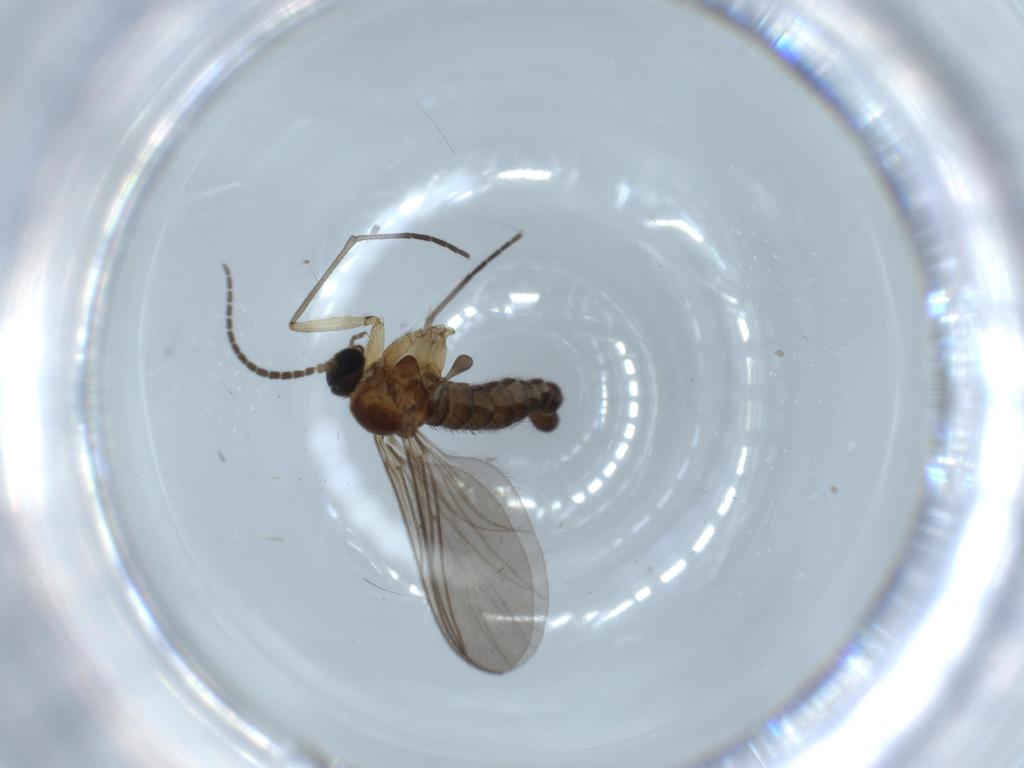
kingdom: Animalia
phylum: Arthropoda
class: Insecta
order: Diptera
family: Sciaridae
